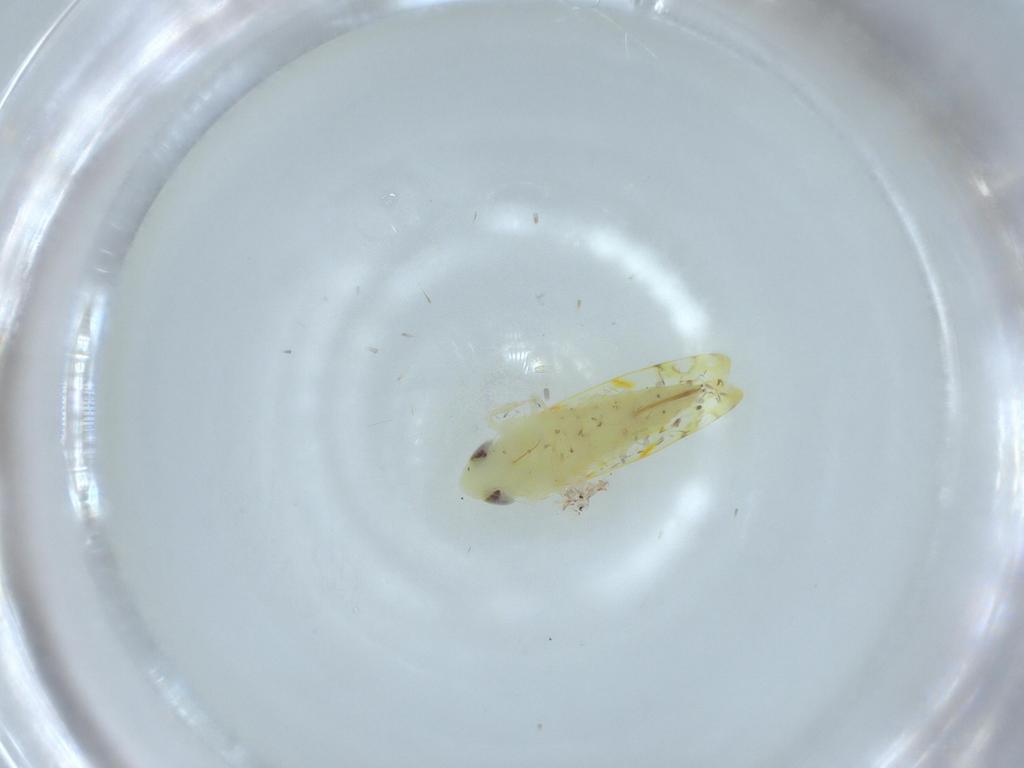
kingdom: Animalia
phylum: Arthropoda
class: Insecta
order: Hemiptera
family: Cicadellidae
